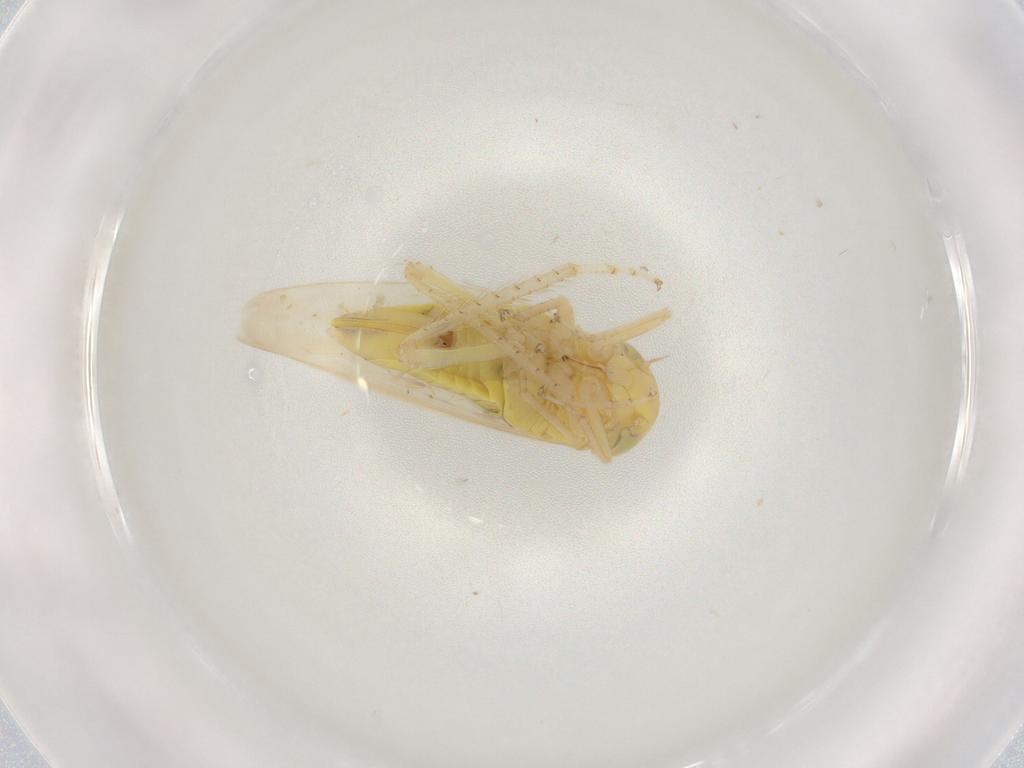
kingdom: Animalia
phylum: Arthropoda
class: Insecta
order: Hemiptera
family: Cicadellidae
